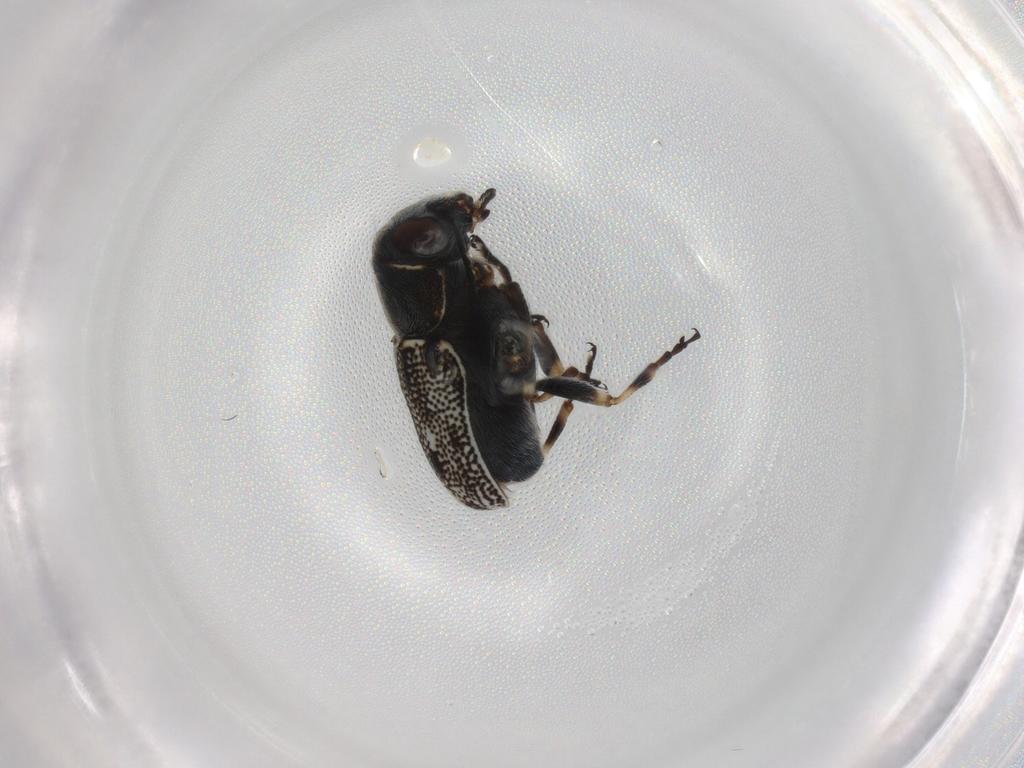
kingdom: Animalia
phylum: Arthropoda
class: Insecta
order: Coleoptera
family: Chrysomelidae
